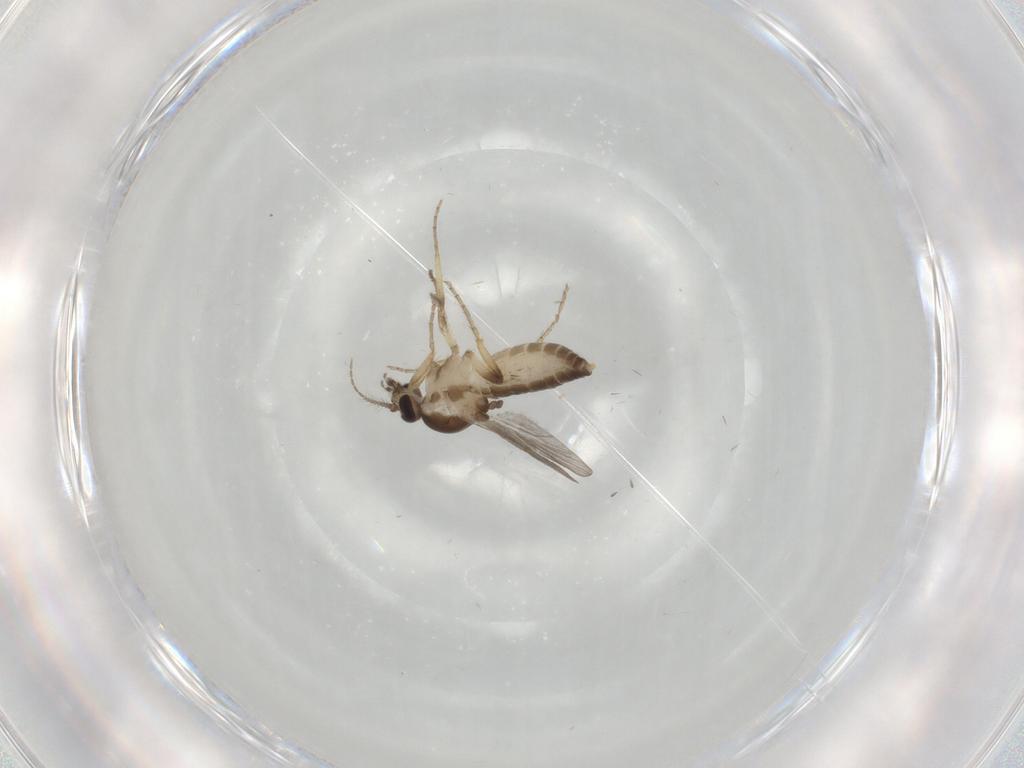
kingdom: Animalia
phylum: Arthropoda
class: Insecta
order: Diptera
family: Ceratopogonidae
